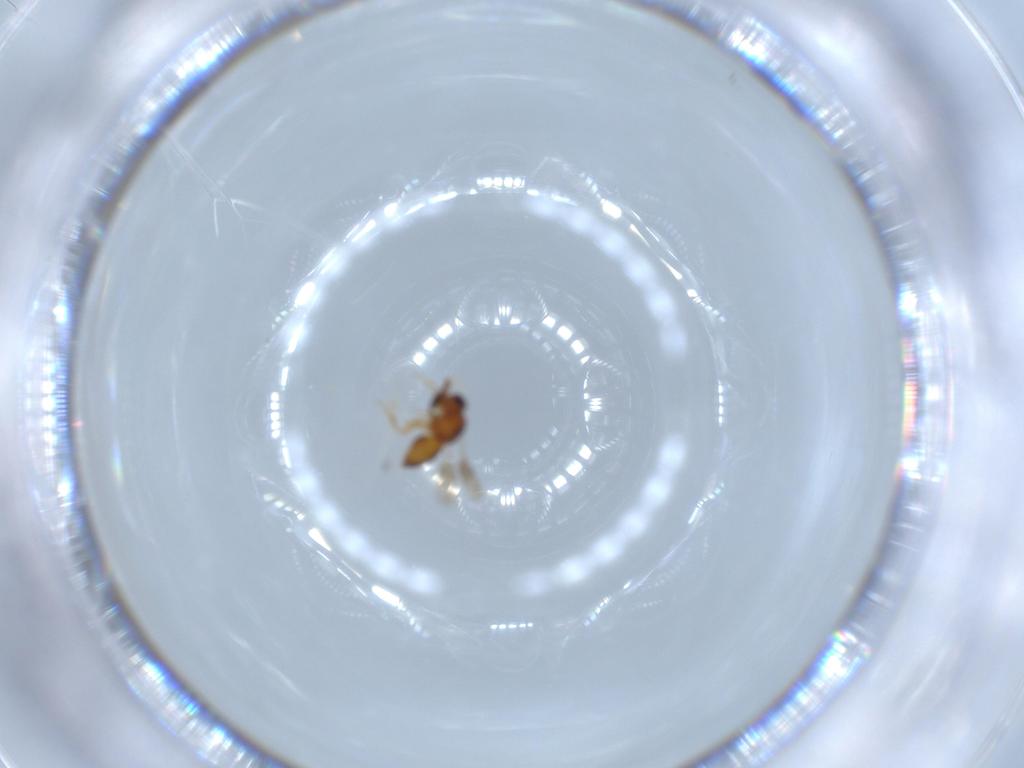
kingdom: Animalia
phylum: Arthropoda
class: Insecta
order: Hymenoptera
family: Ceraphronidae
